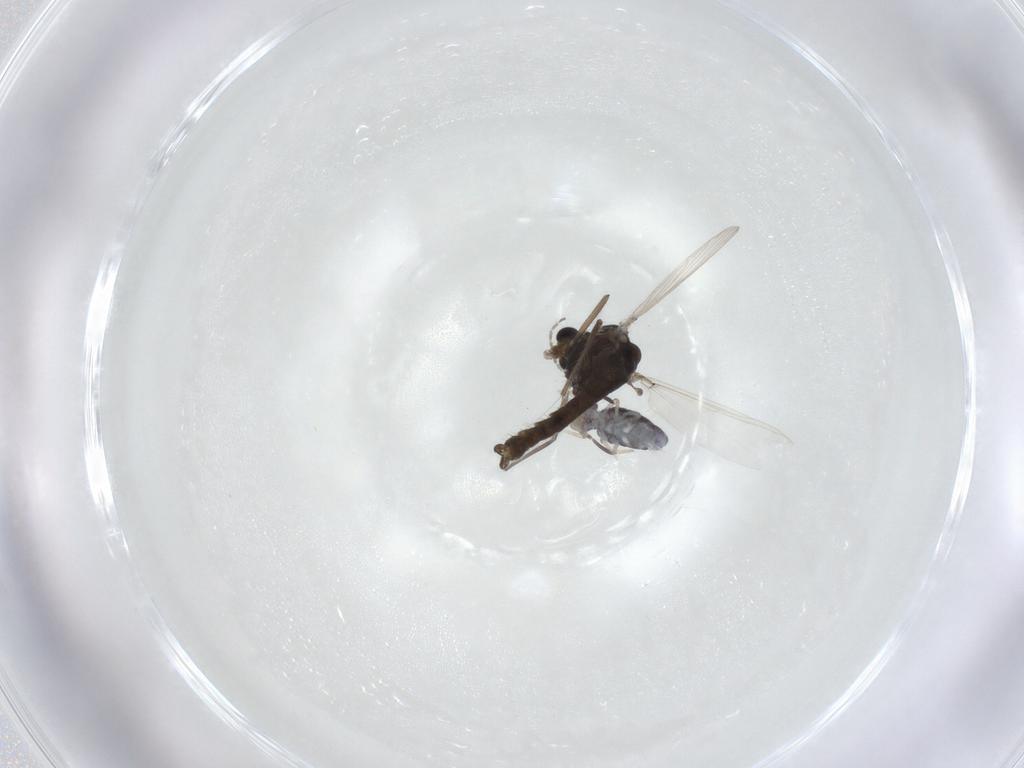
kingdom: Animalia
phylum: Arthropoda
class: Insecta
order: Diptera
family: Chironomidae
